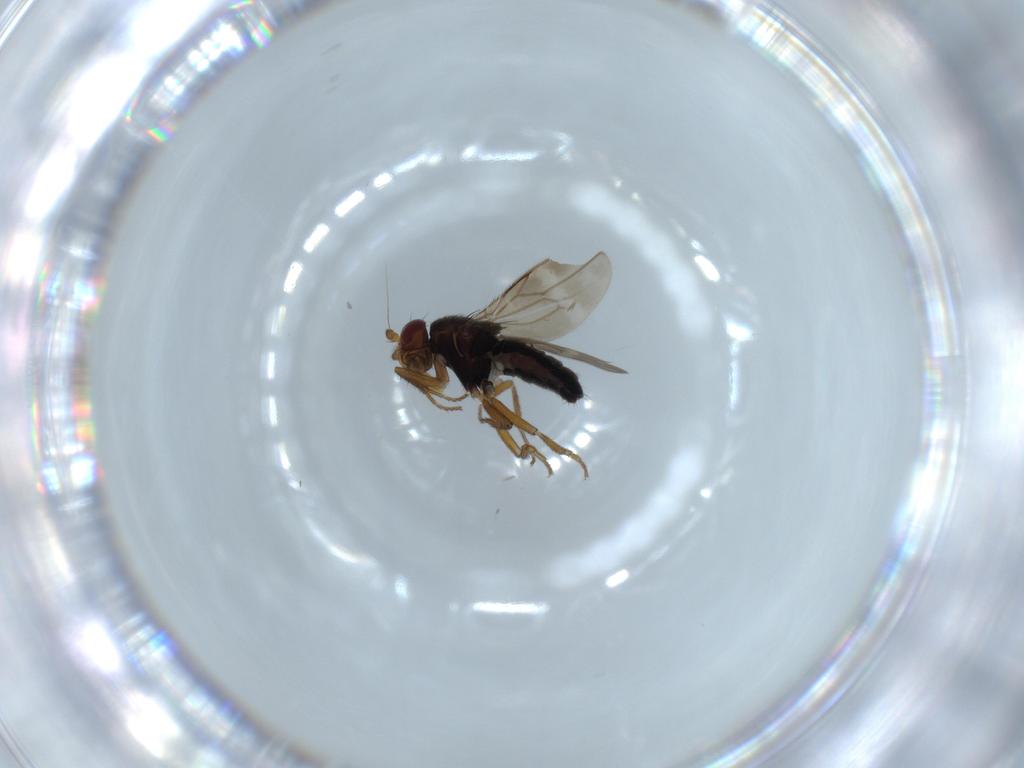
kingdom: Animalia
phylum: Arthropoda
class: Insecta
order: Diptera
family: Sphaeroceridae
